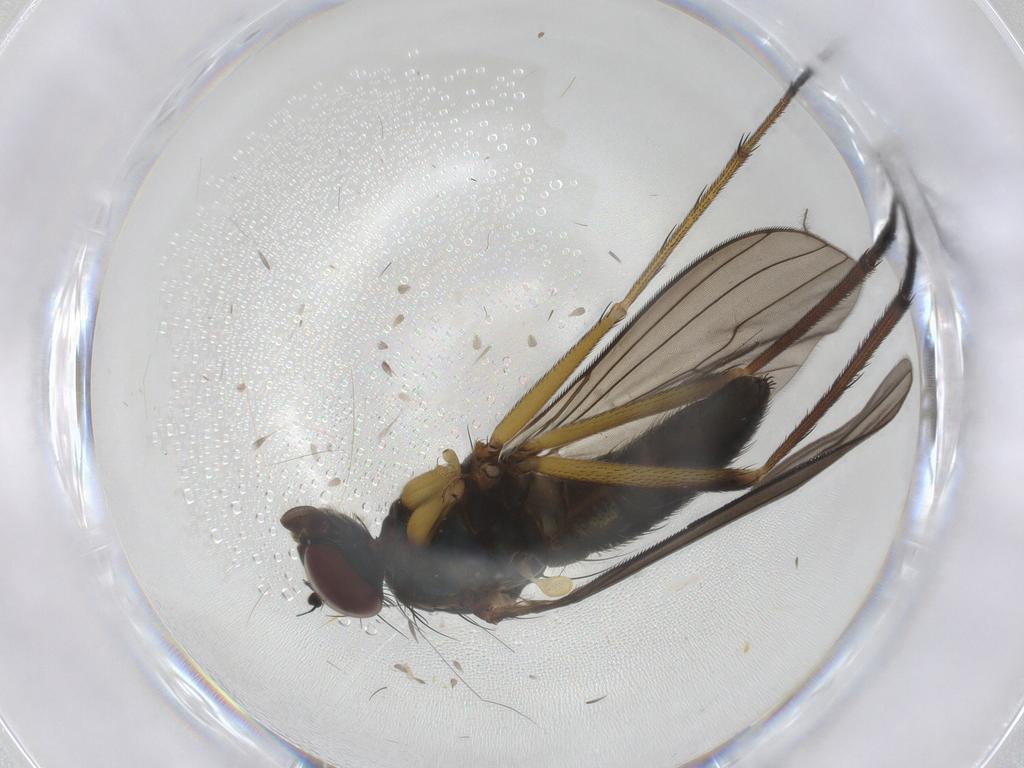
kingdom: Animalia
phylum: Arthropoda
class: Insecta
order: Diptera
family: Dolichopodidae
